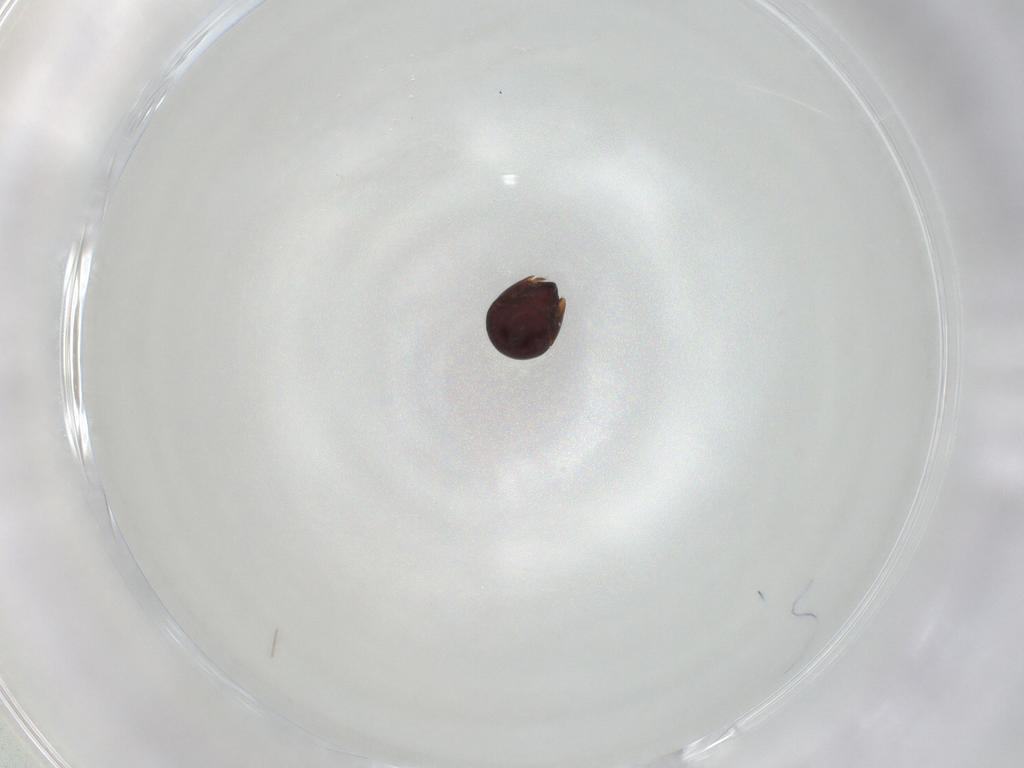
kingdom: Animalia
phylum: Arthropoda
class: Arachnida
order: Sarcoptiformes
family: Galumnidae
